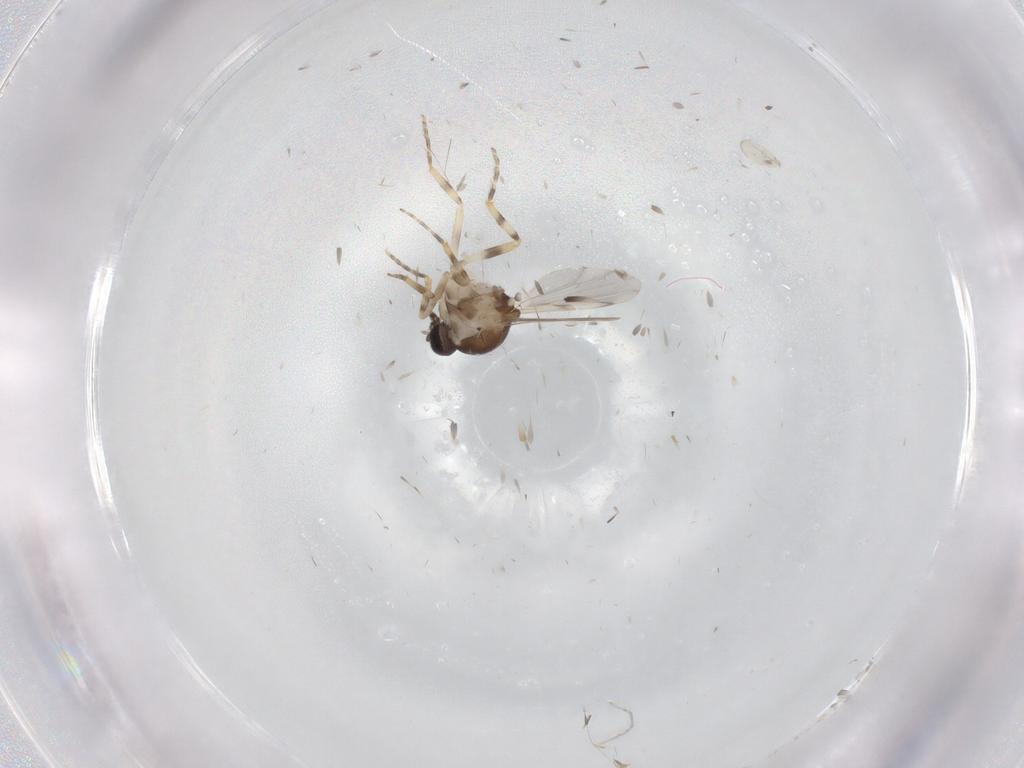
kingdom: Animalia
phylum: Arthropoda
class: Insecta
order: Diptera
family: Ceratopogonidae
